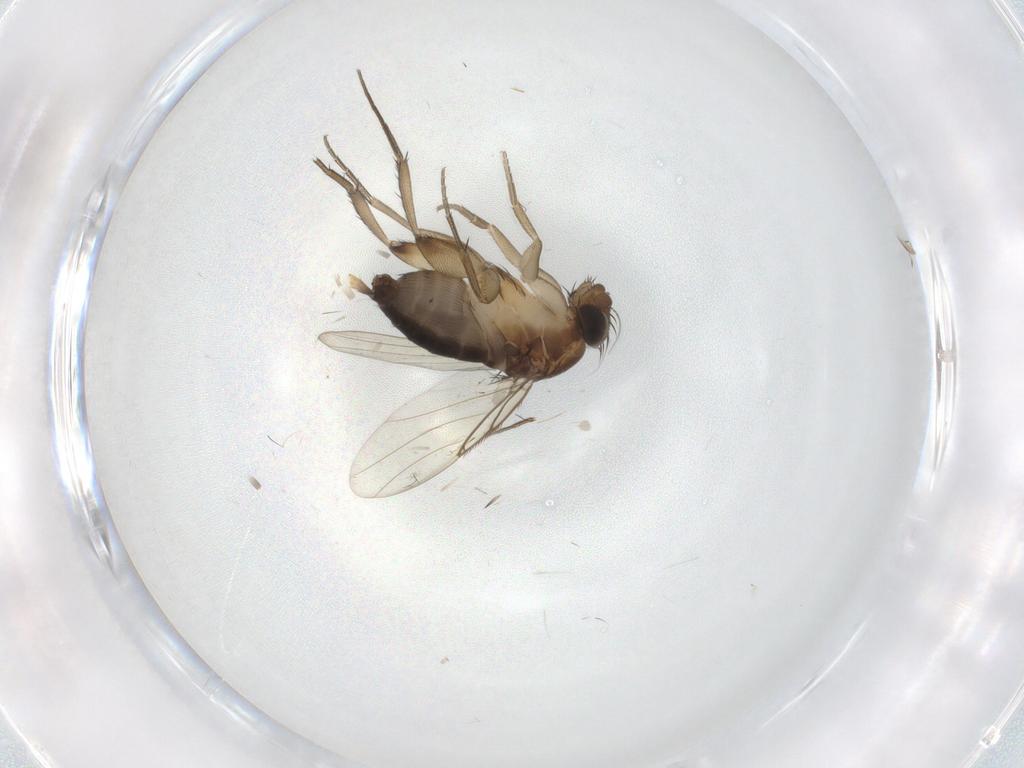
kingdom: Animalia
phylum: Arthropoda
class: Insecta
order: Diptera
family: Phoridae
